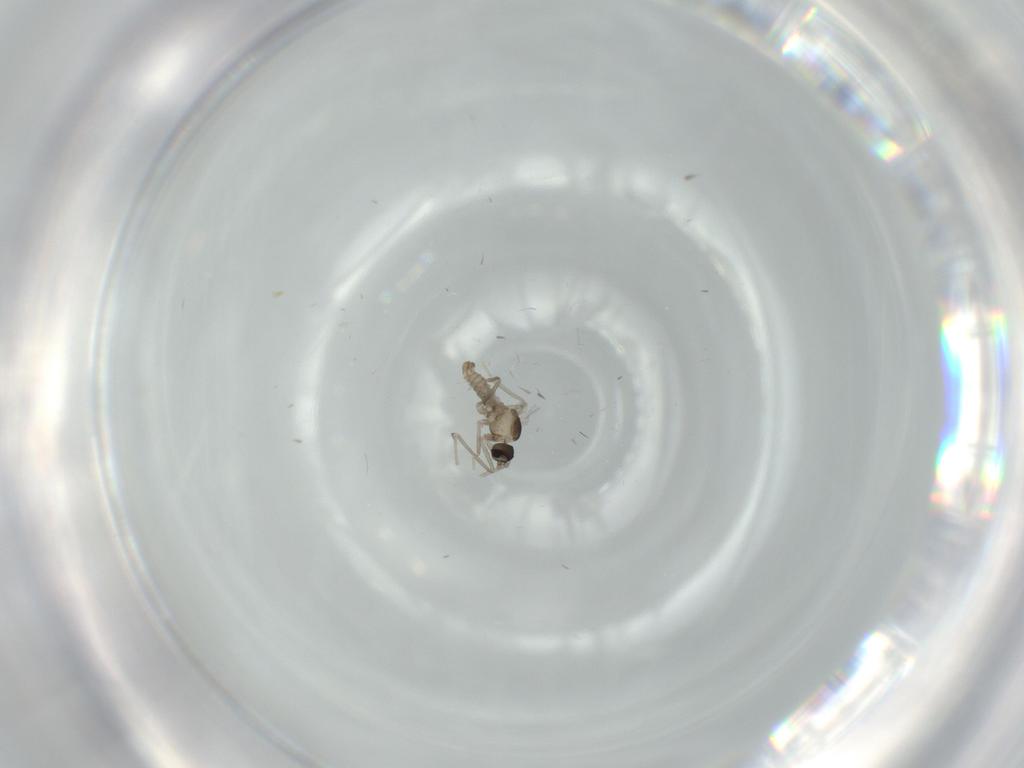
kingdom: Animalia
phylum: Arthropoda
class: Insecta
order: Diptera
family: Cecidomyiidae
